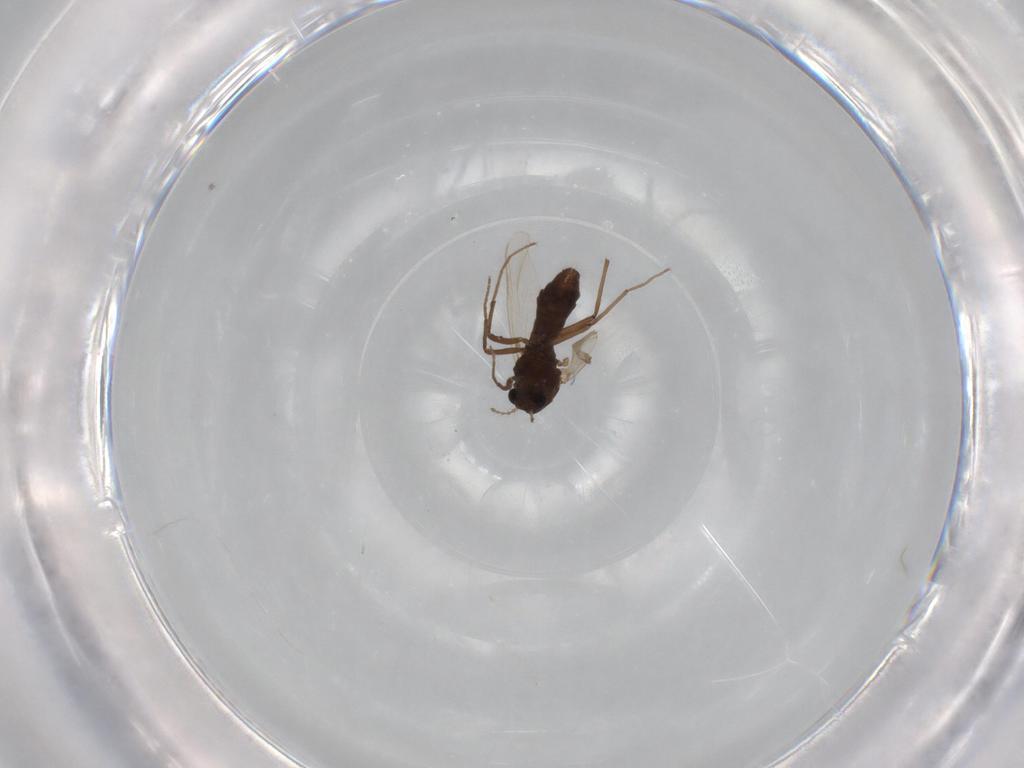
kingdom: Animalia
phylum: Arthropoda
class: Insecta
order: Diptera
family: Chironomidae
